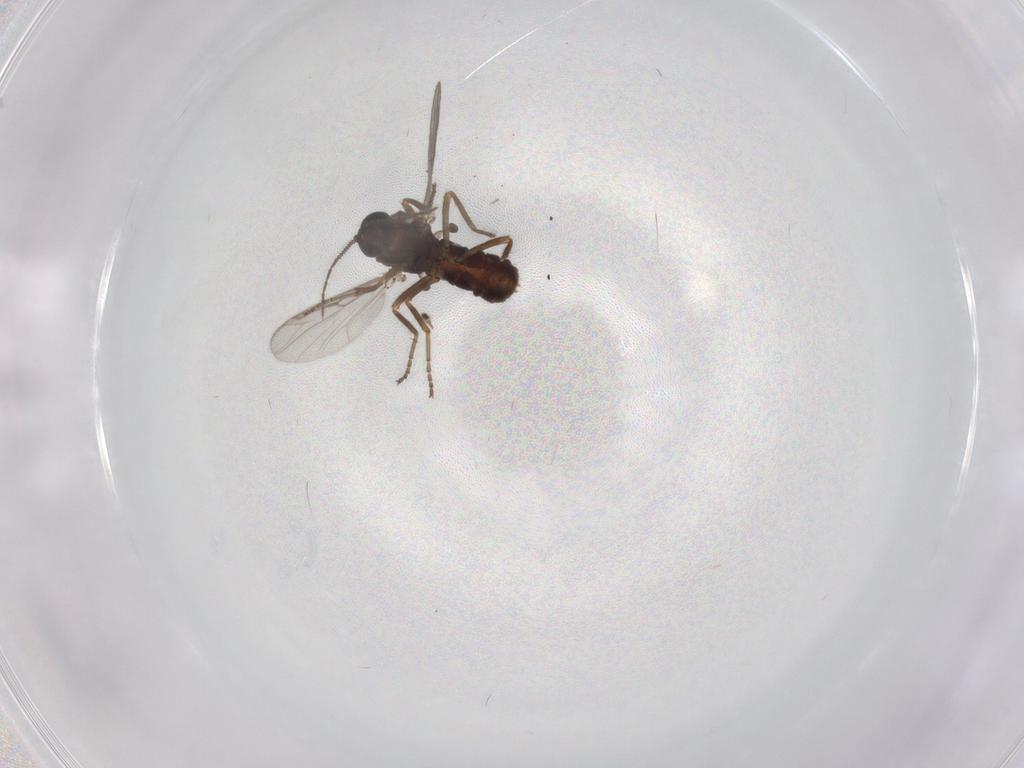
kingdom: Animalia
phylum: Arthropoda
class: Insecta
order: Diptera
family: Ceratopogonidae
